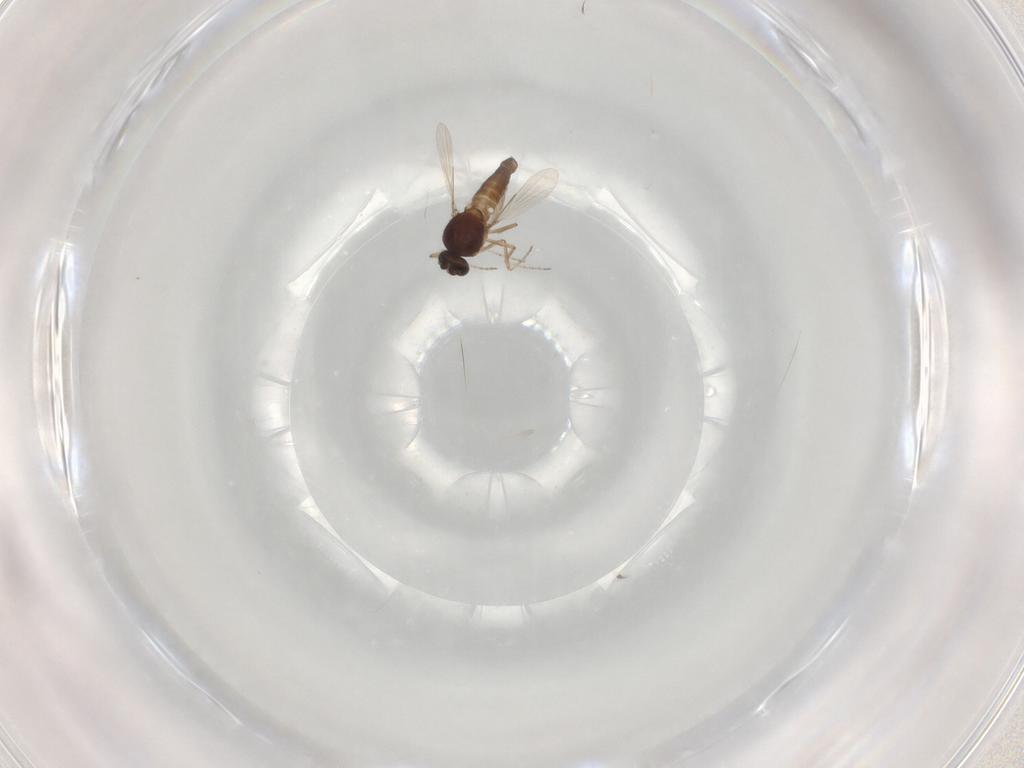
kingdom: Animalia
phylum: Arthropoda
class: Insecta
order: Diptera
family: Ceratopogonidae
